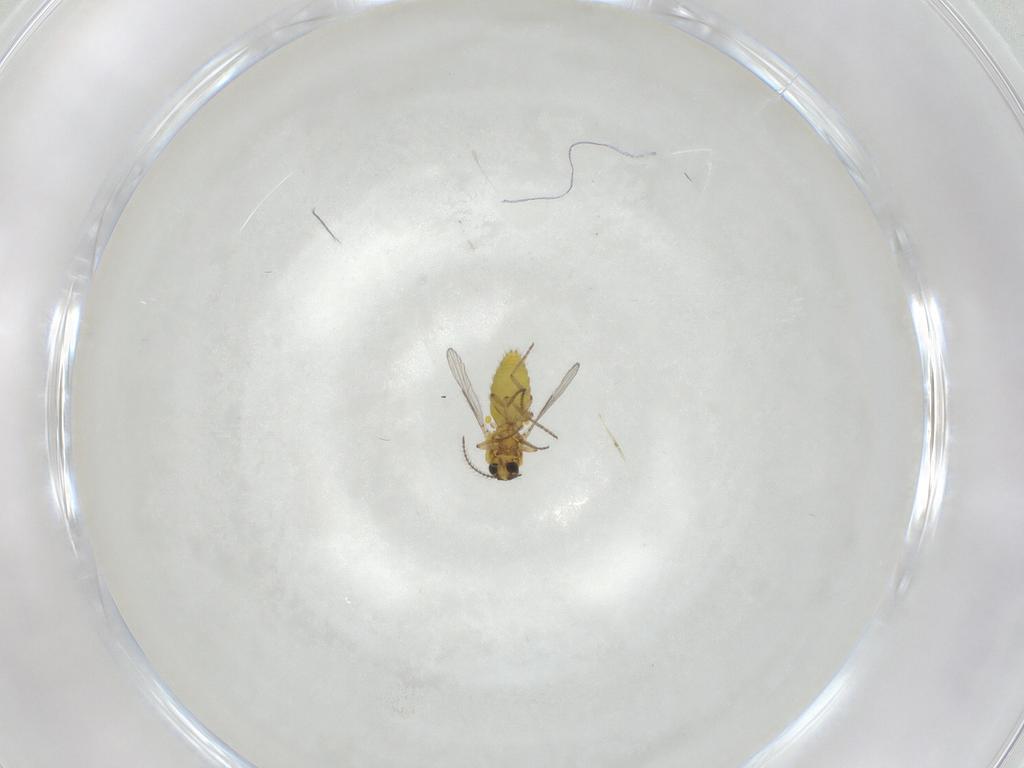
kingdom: Animalia
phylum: Arthropoda
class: Insecta
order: Diptera
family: Ceratopogonidae
